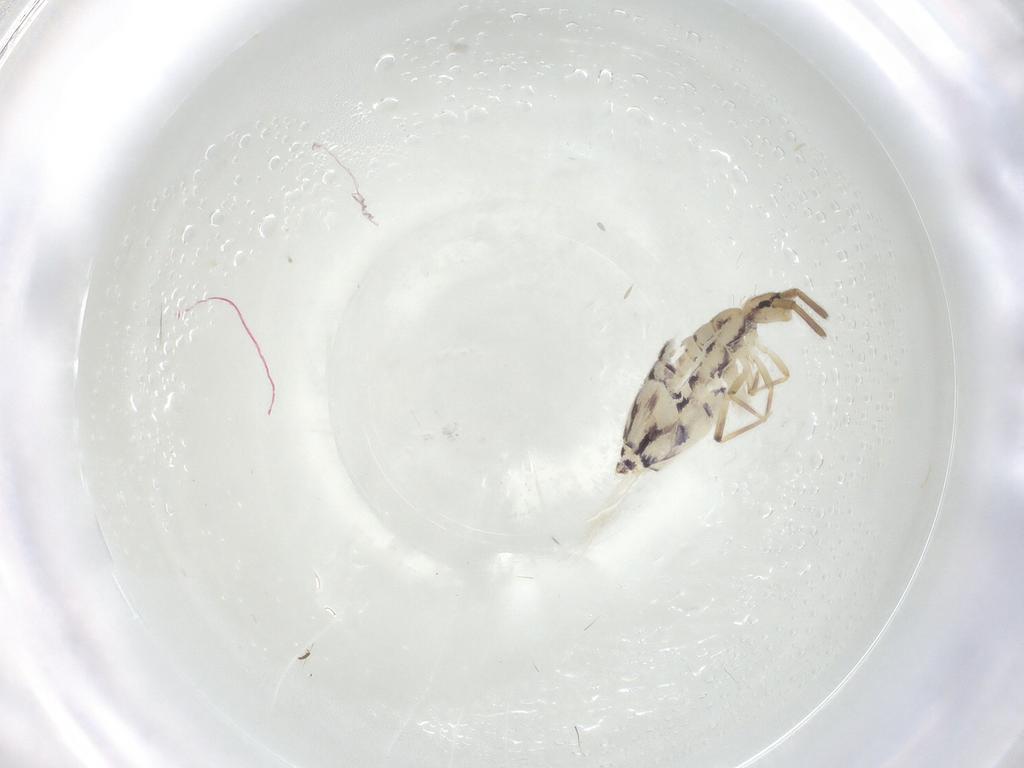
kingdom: Animalia
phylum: Arthropoda
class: Collembola
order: Entomobryomorpha
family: Entomobryidae
